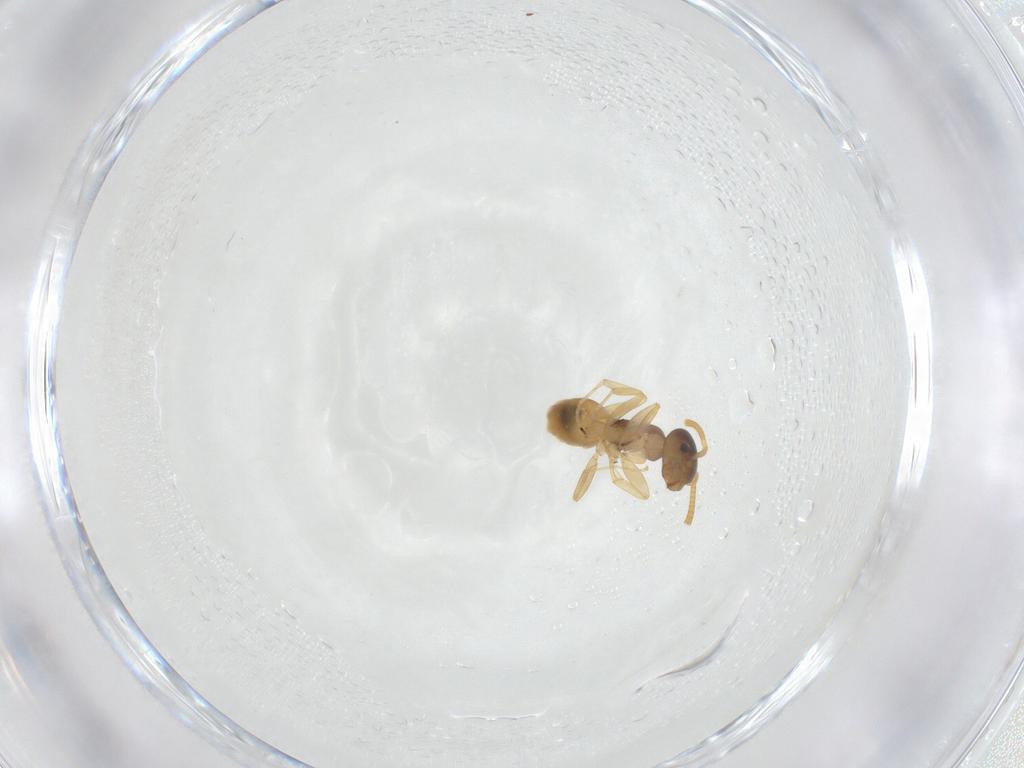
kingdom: Animalia
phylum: Arthropoda
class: Insecta
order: Hymenoptera
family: Formicidae
